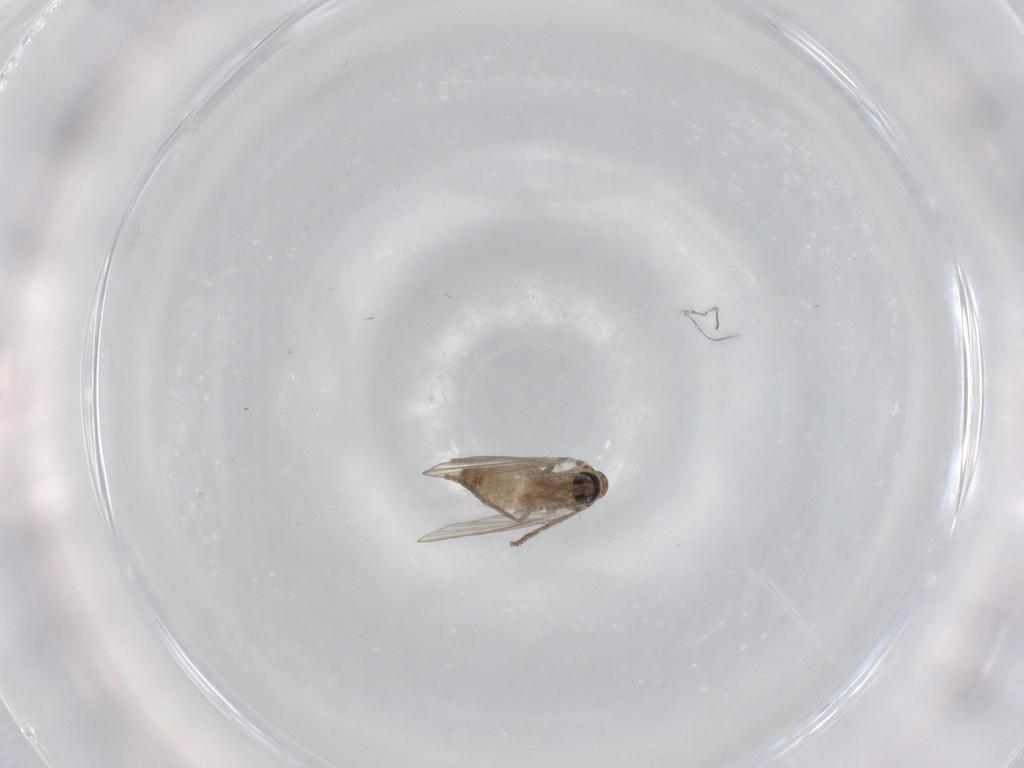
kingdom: Animalia
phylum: Arthropoda
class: Insecta
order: Diptera
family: Psychodidae
